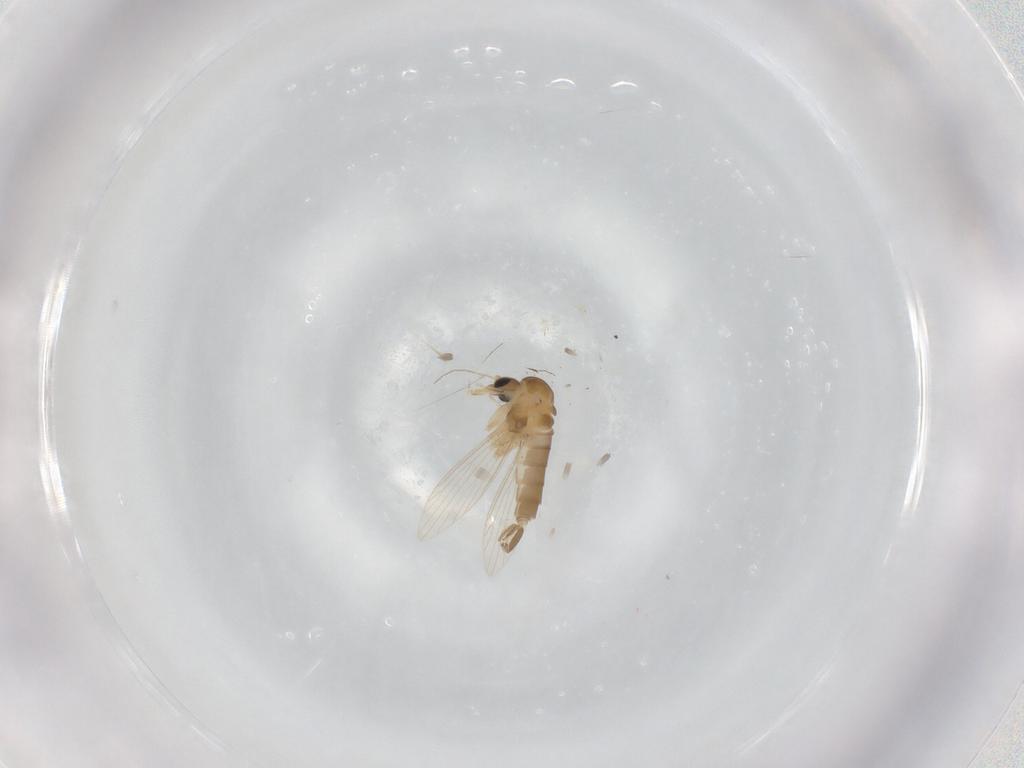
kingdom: Animalia
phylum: Arthropoda
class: Insecta
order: Diptera
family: Psychodidae
